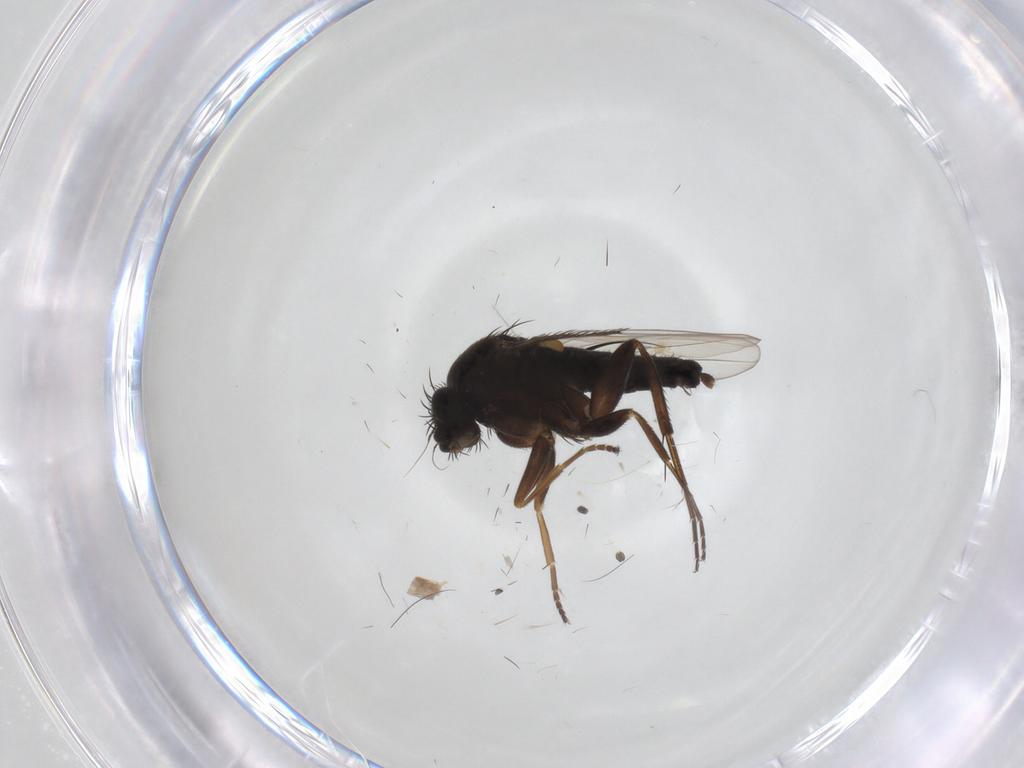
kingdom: Animalia
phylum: Arthropoda
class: Insecta
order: Diptera
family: Phoridae
